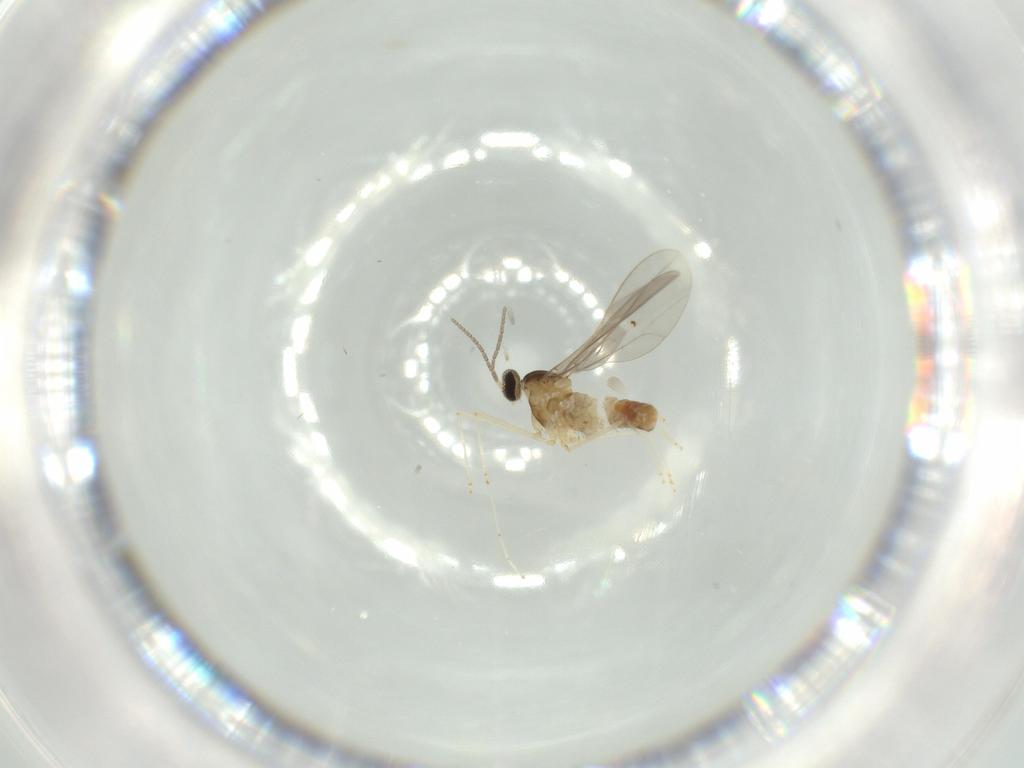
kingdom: Animalia
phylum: Arthropoda
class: Insecta
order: Diptera
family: Cecidomyiidae
